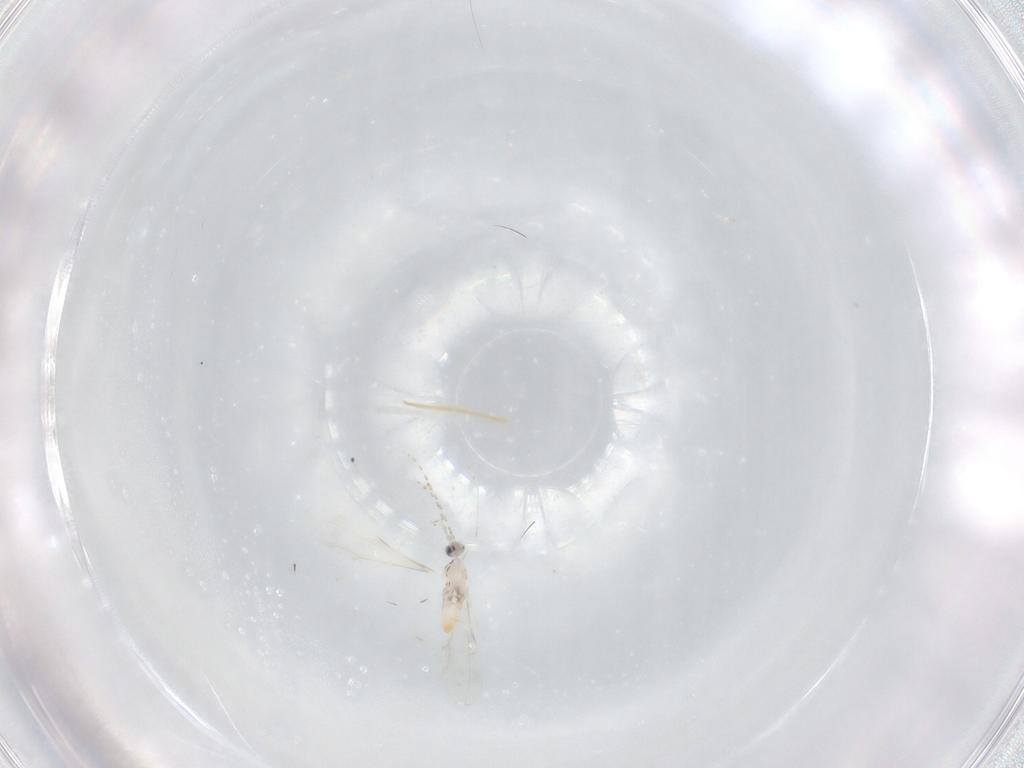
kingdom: Animalia
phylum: Arthropoda
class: Insecta
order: Diptera
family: Cecidomyiidae
